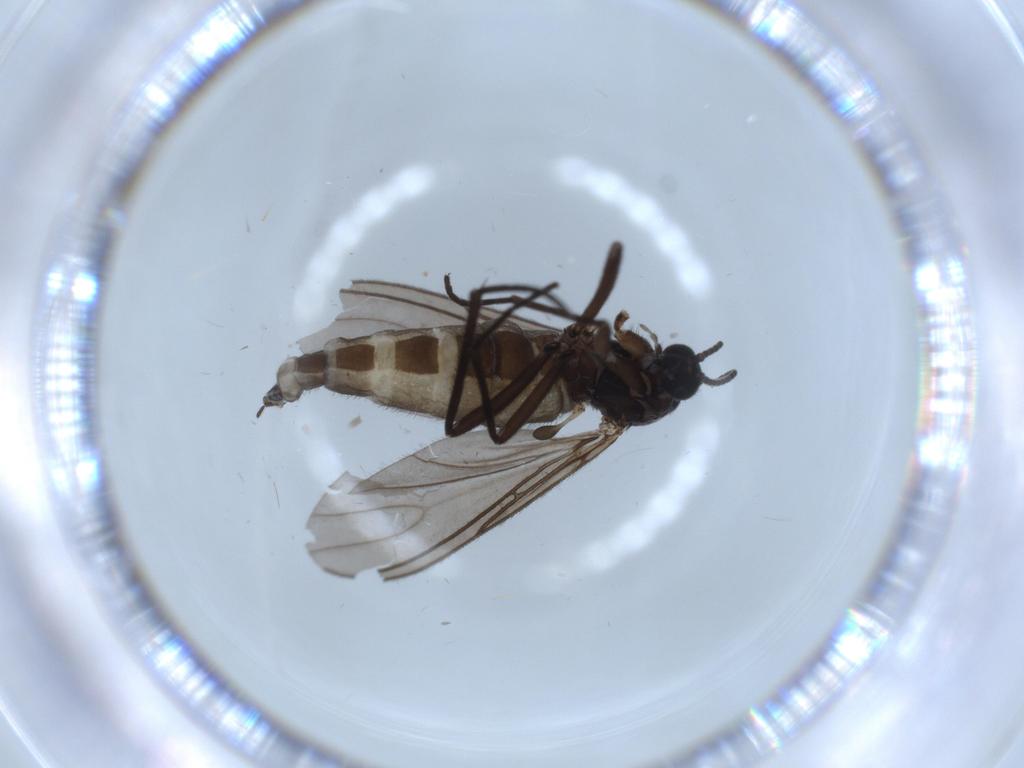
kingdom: Animalia
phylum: Arthropoda
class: Insecta
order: Diptera
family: Sciaridae
